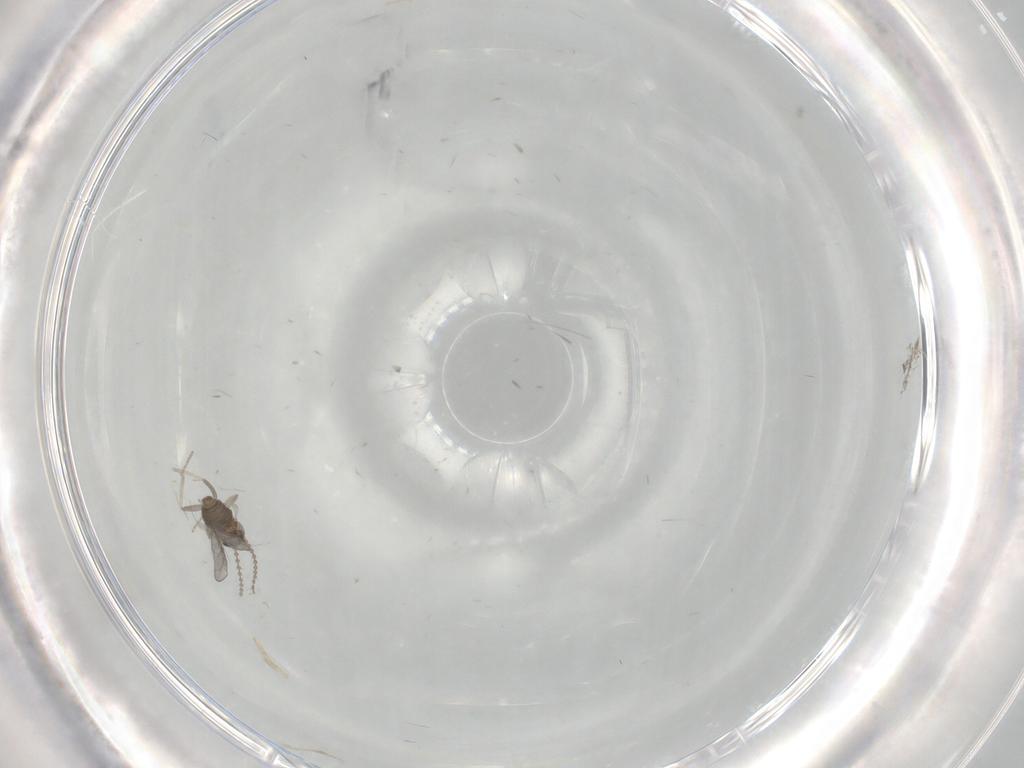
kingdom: Animalia
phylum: Arthropoda
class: Insecta
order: Diptera
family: Cecidomyiidae
